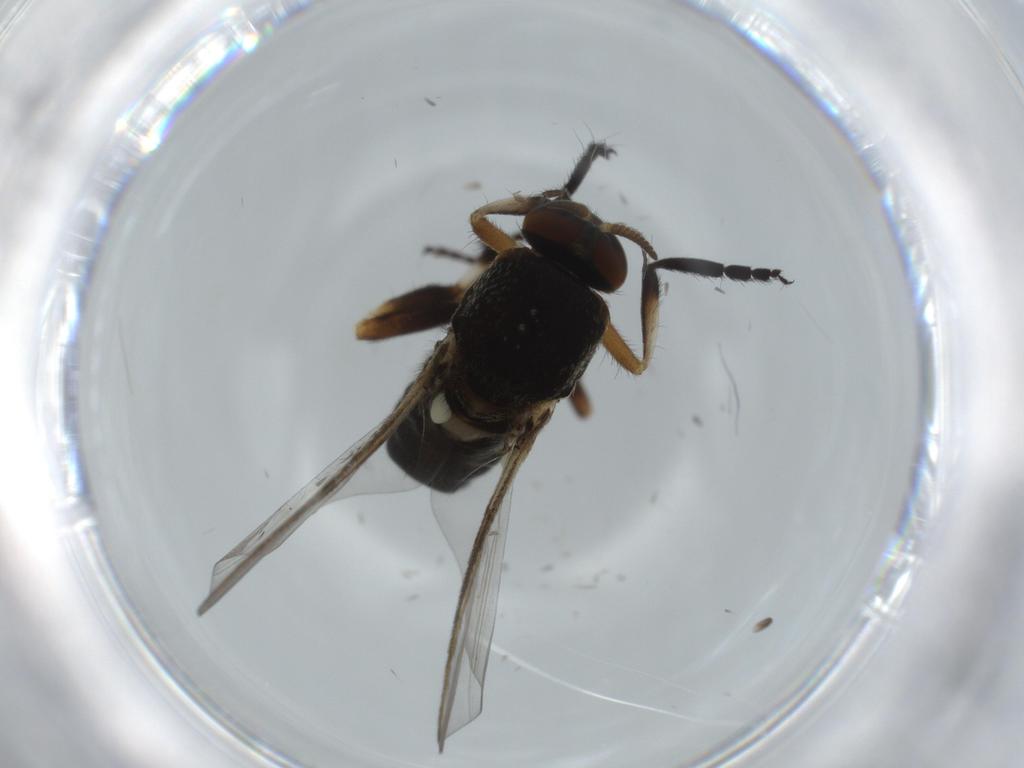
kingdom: Animalia
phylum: Arthropoda
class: Insecta
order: Diptera
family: Phoridae
